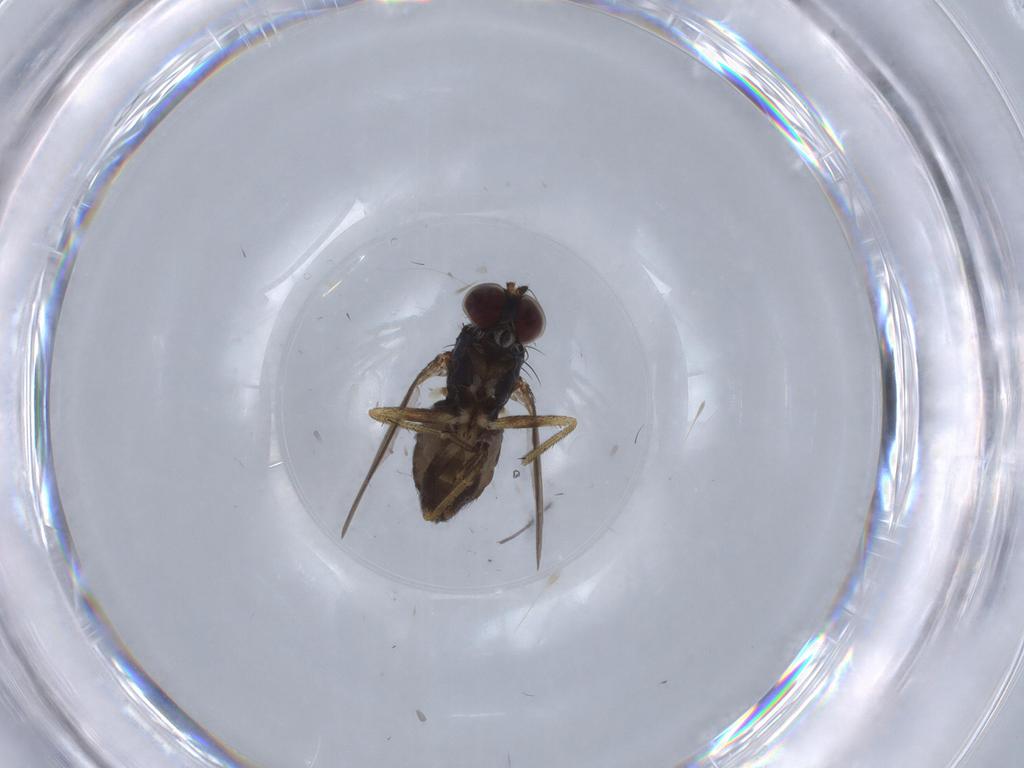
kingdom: Animalia
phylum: Arthropoda
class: Insecta
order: Diptera
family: Dolichopodidae
